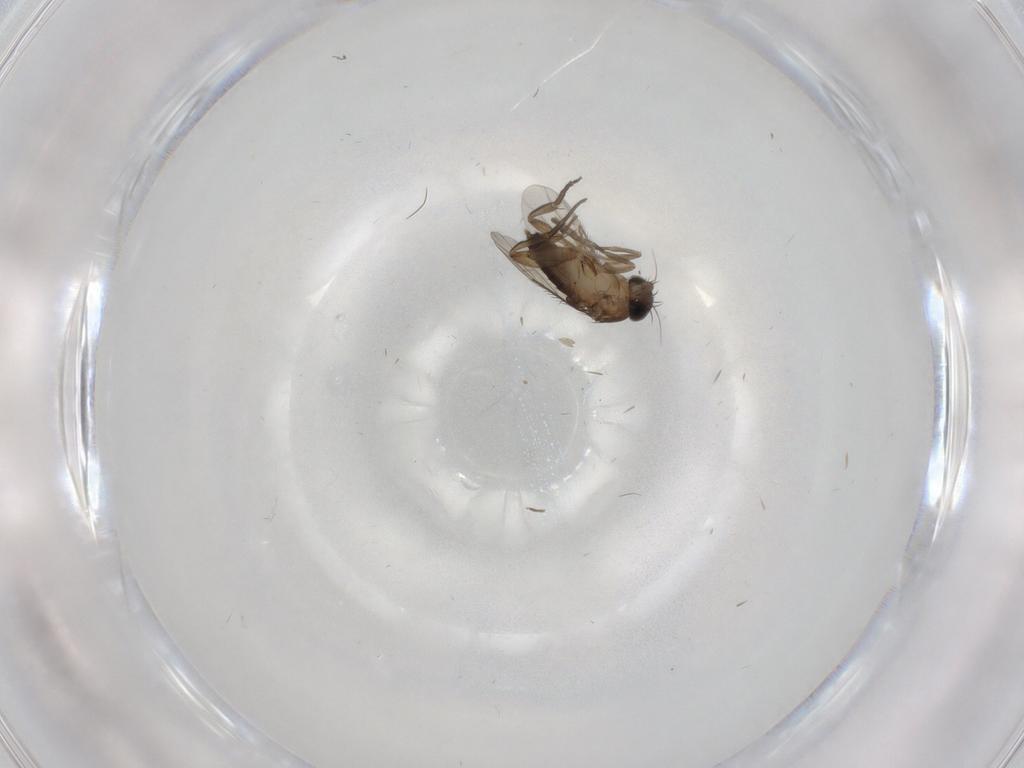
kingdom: Animalia
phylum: Arthropoda
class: Insecta
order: Diptera
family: Phoridae
